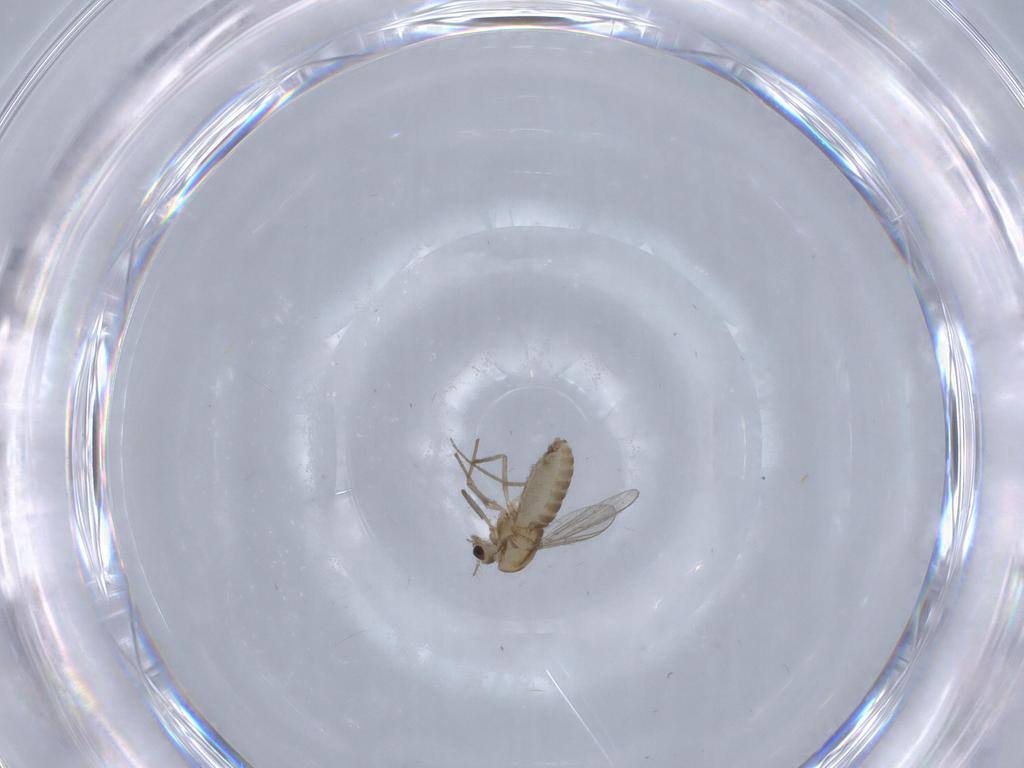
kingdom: Animalia
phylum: Arthropoda
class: Insecta
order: Diptera
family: Chironomidae
